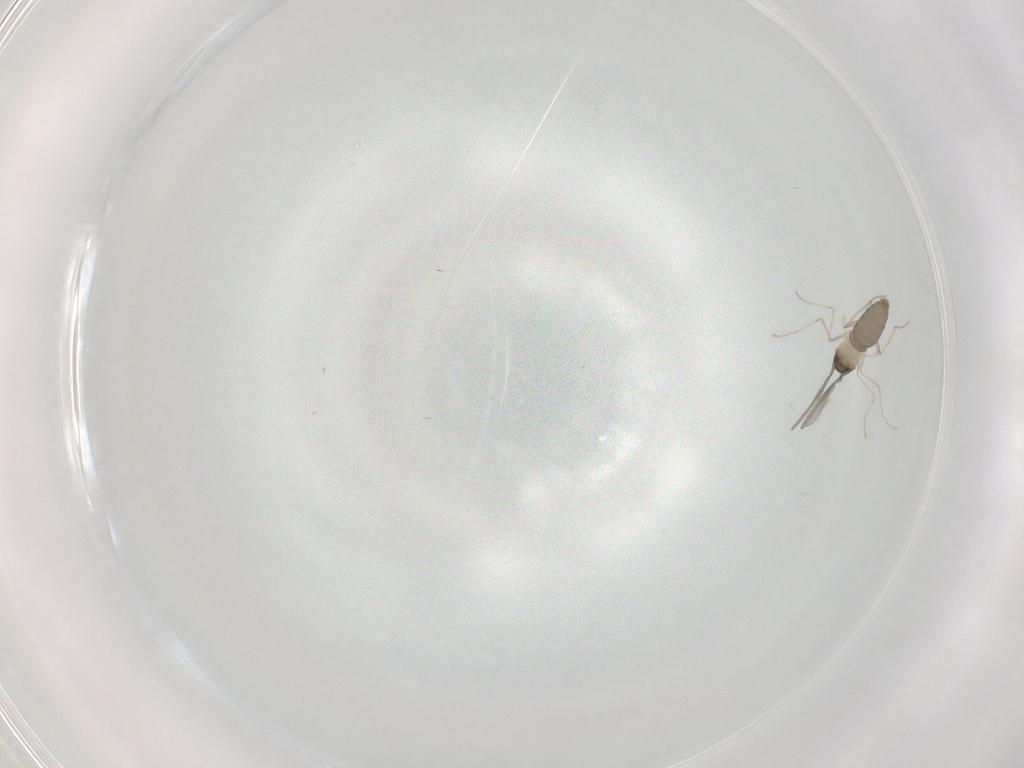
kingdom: Animalia
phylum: Arthropoda
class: Insecta
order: Diptera
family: Cecidomyiidae
